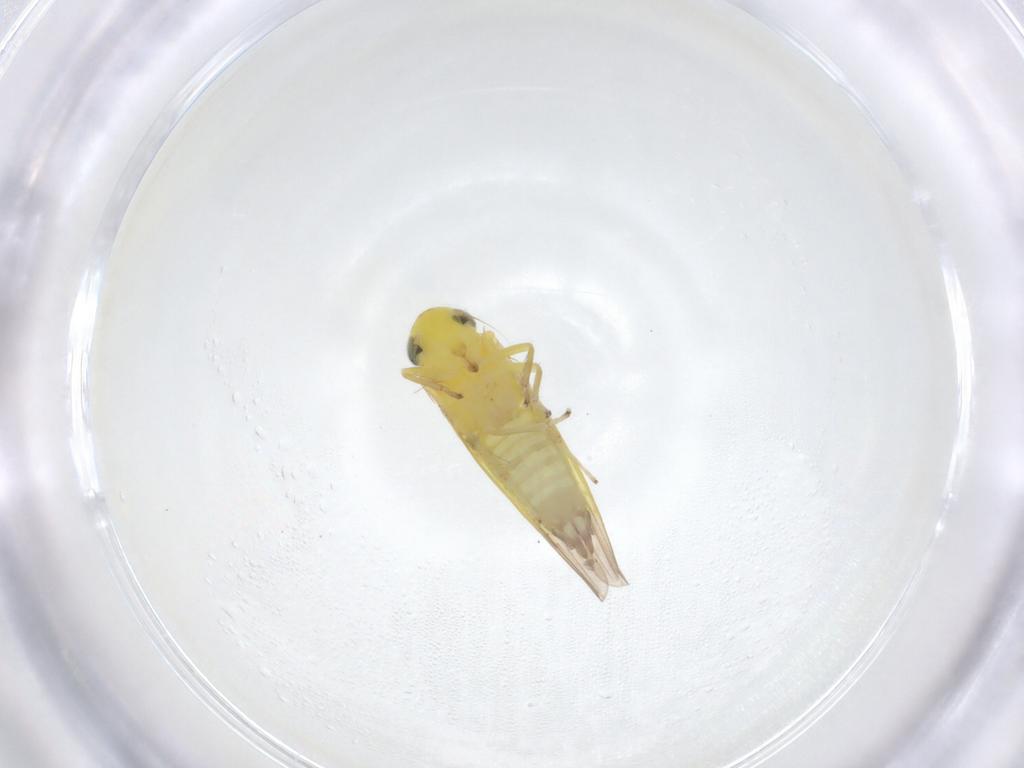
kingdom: Animalia
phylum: Arthropoda
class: Insecta
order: Hemiptera
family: Cicadellidae
